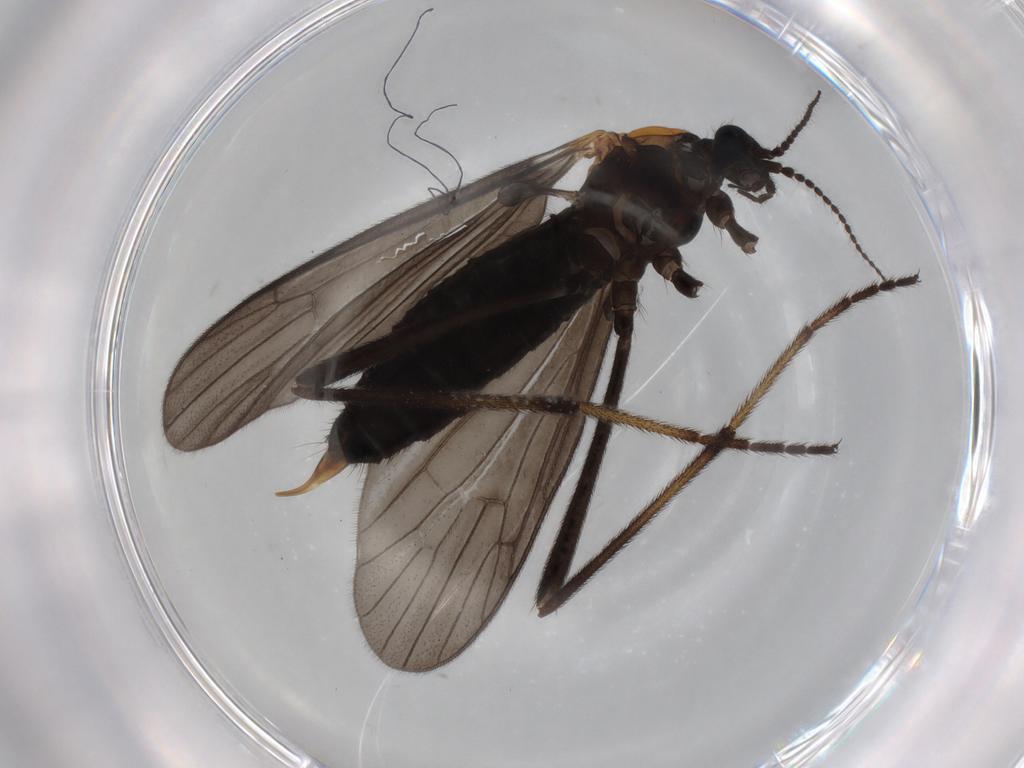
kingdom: Animalia
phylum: Arthropoda
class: Insecta
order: Diptera
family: Limoniidae
